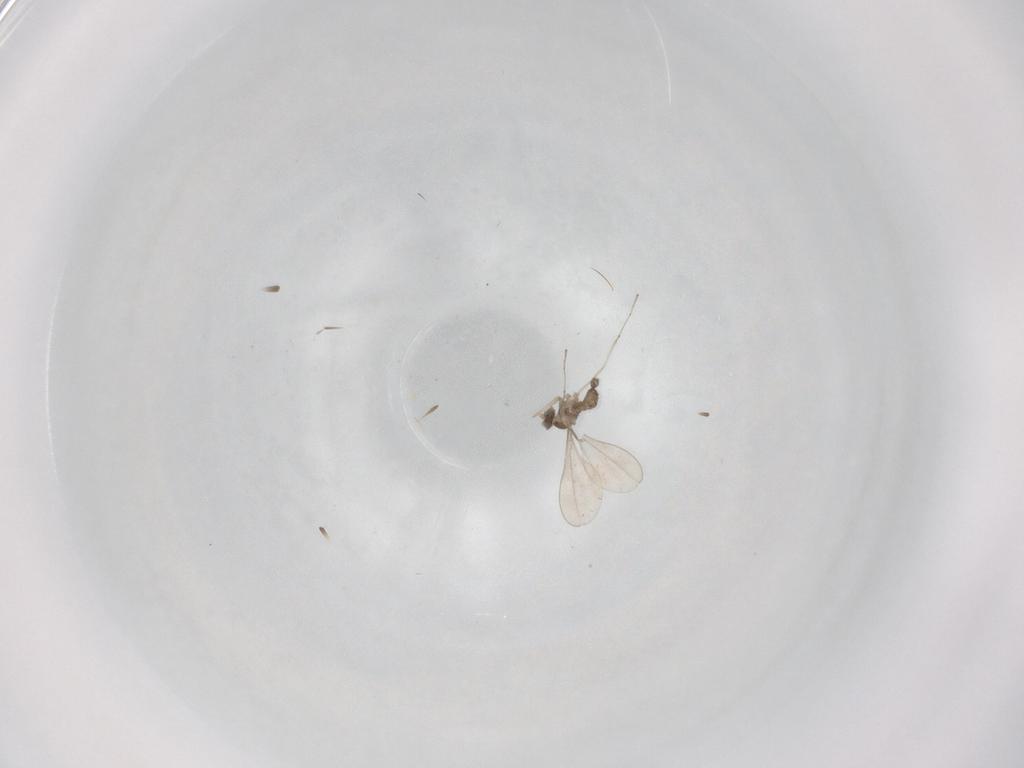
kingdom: Animalia
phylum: Arthropoda
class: Insecta
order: Diptera
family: Cecidomyiidae
